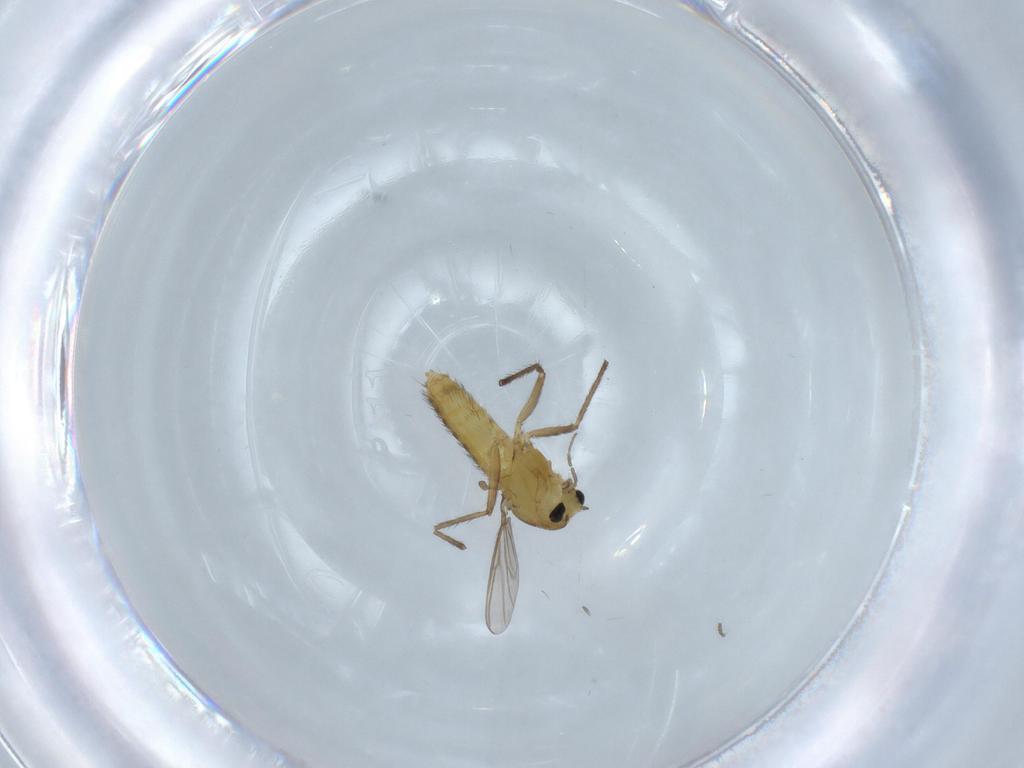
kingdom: Animalia
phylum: Arthropoda
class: Insecta
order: Diptera
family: Chironomidae
